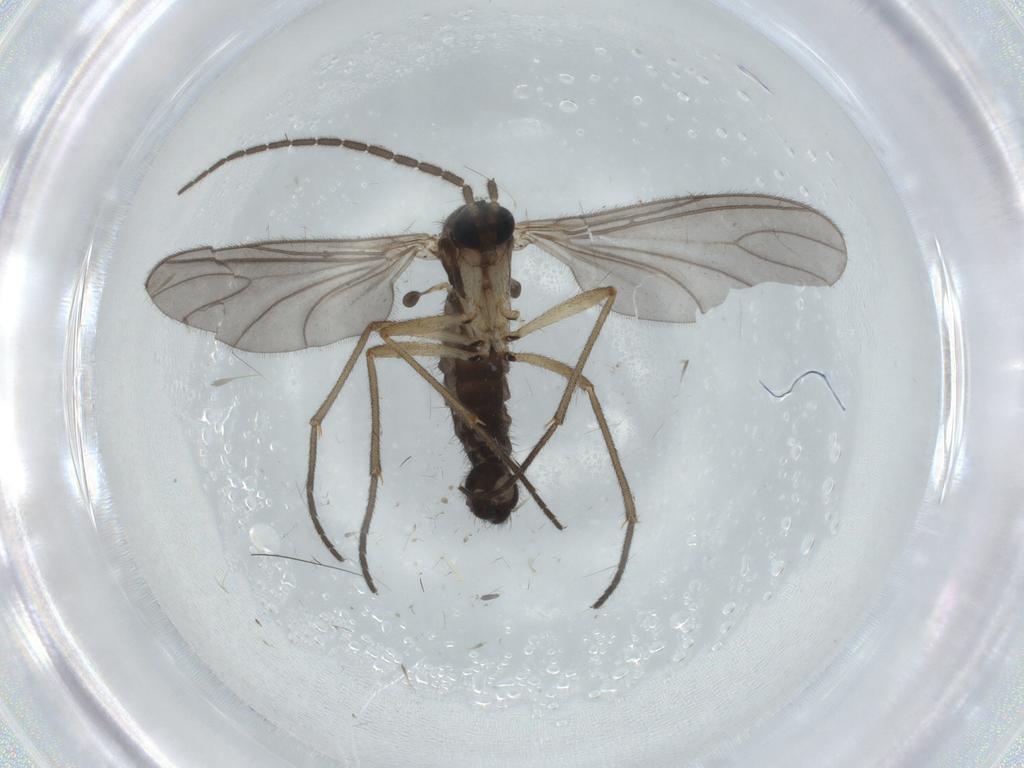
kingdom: Animalia
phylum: Arthropoda
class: Insecta
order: Diptera
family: Sciaridae
